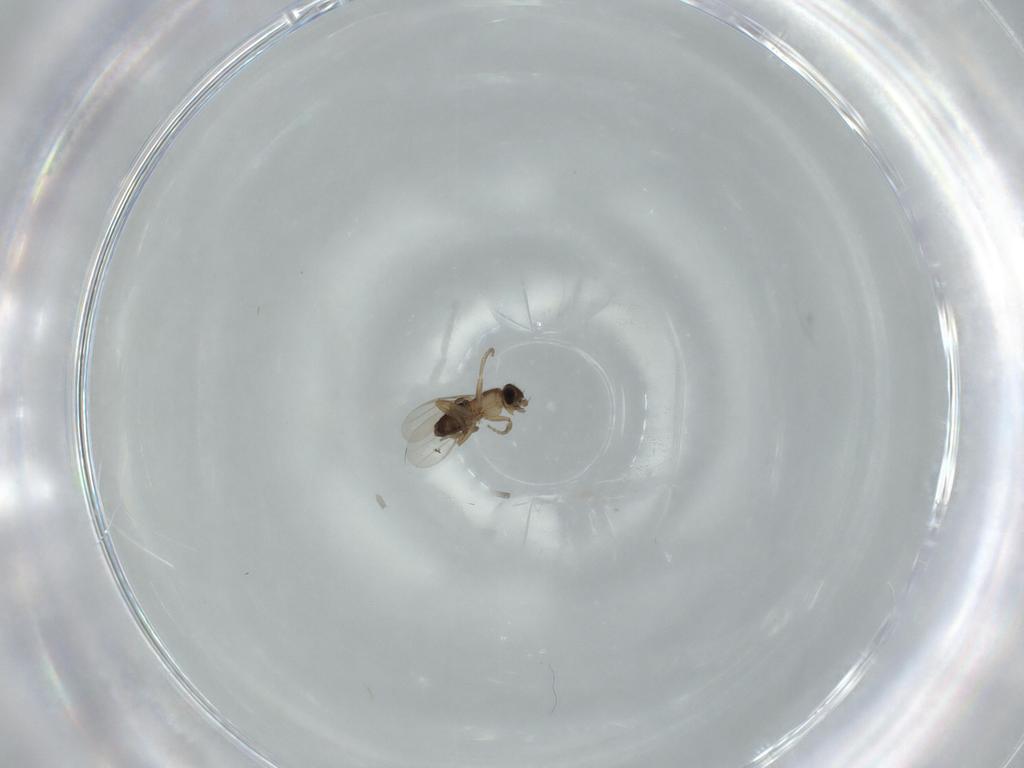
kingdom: Animalia
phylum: Arthropoda
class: Insecta
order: Diptera
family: Phoridae
